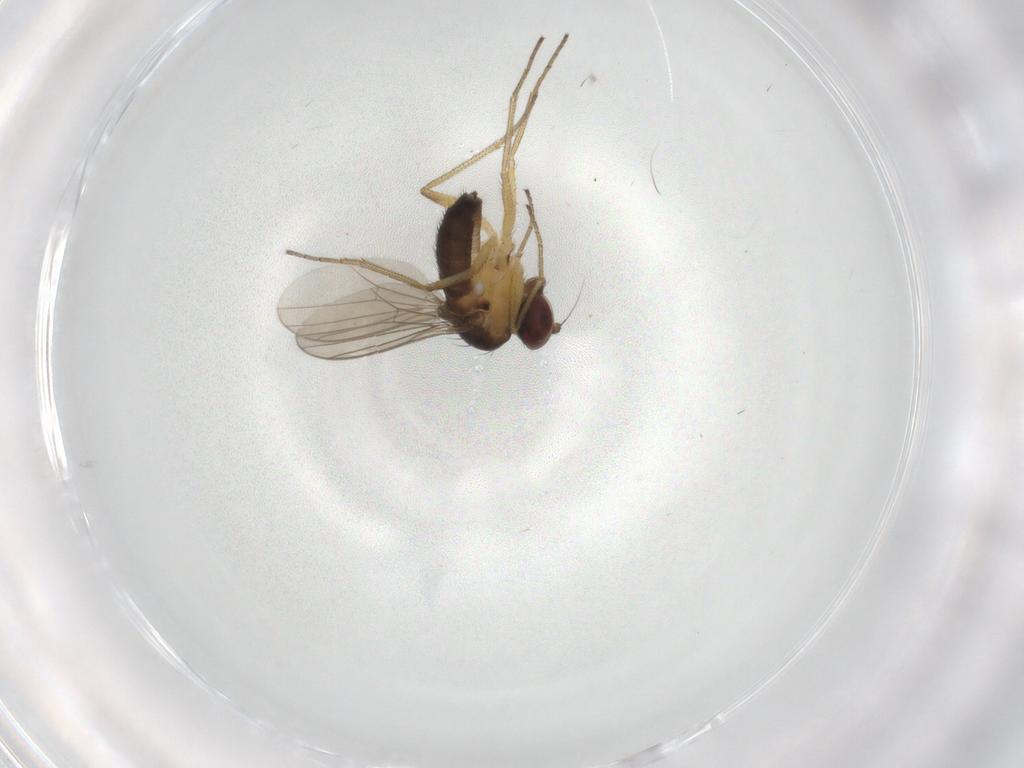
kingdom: Animalia
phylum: Arthropoda
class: Insecta
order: Diptera
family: Dolichopodidae
